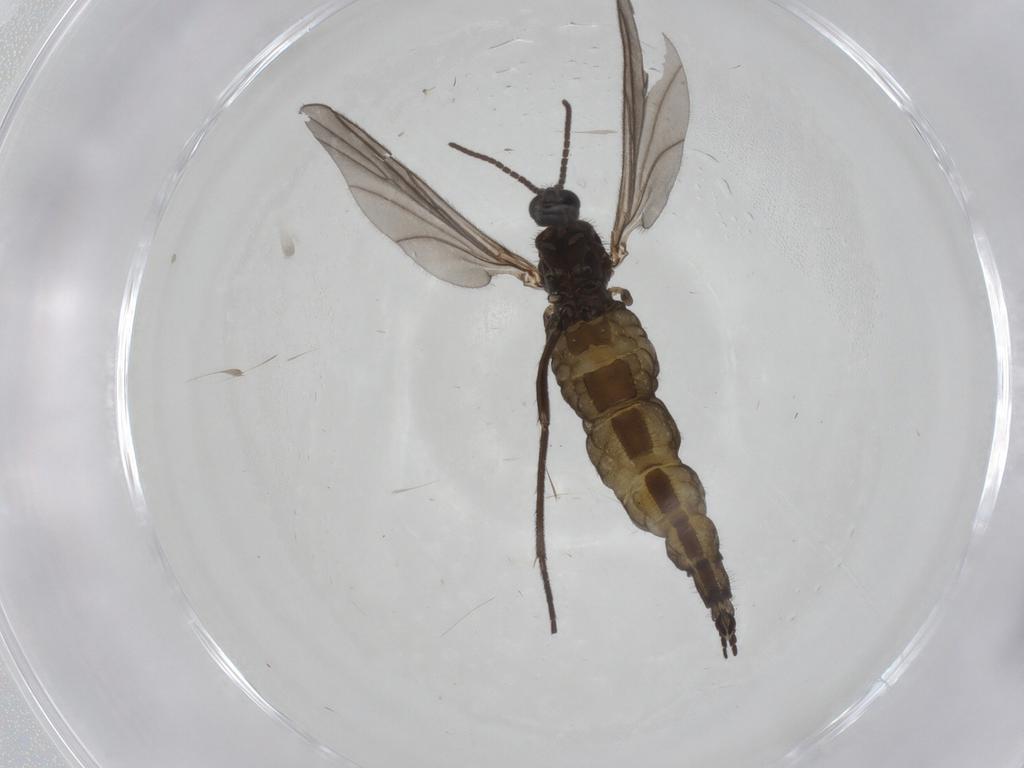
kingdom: Animalia
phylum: Arthropoda
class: Insecta
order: Diptera
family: Sciaridae
